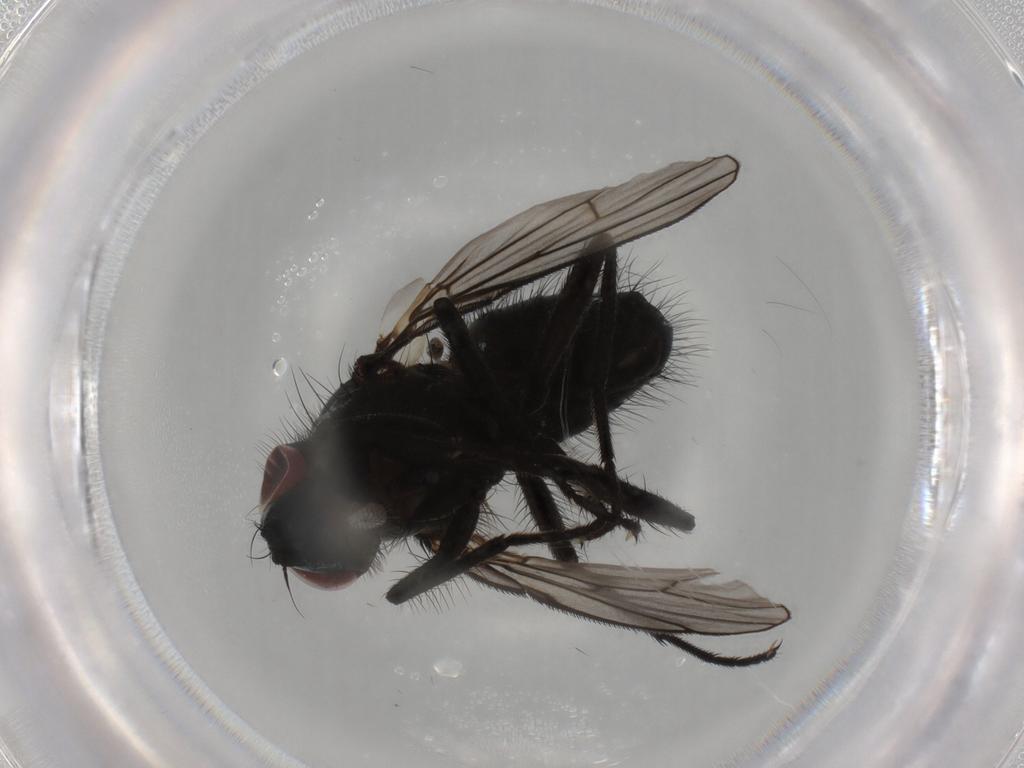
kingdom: Animalia
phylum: Arthropoda
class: Insecta
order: Diptera
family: Muscidae
